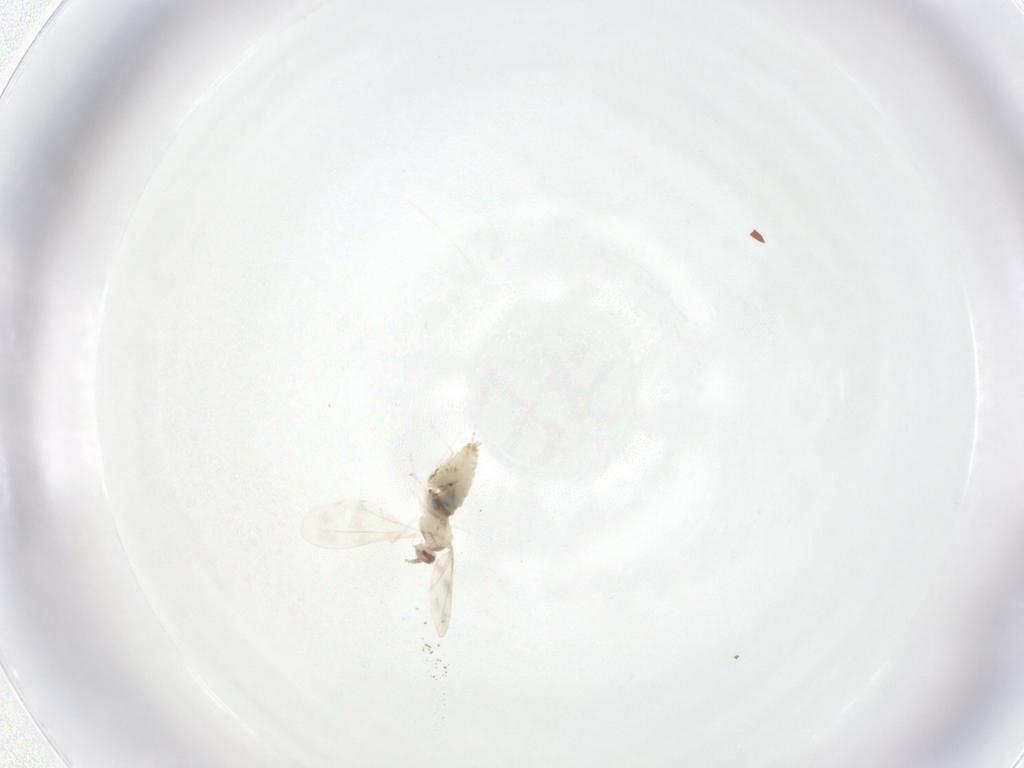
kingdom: Animalia
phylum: Arthropoda
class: Insecta
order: Diptera
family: Cecidomyiidae
